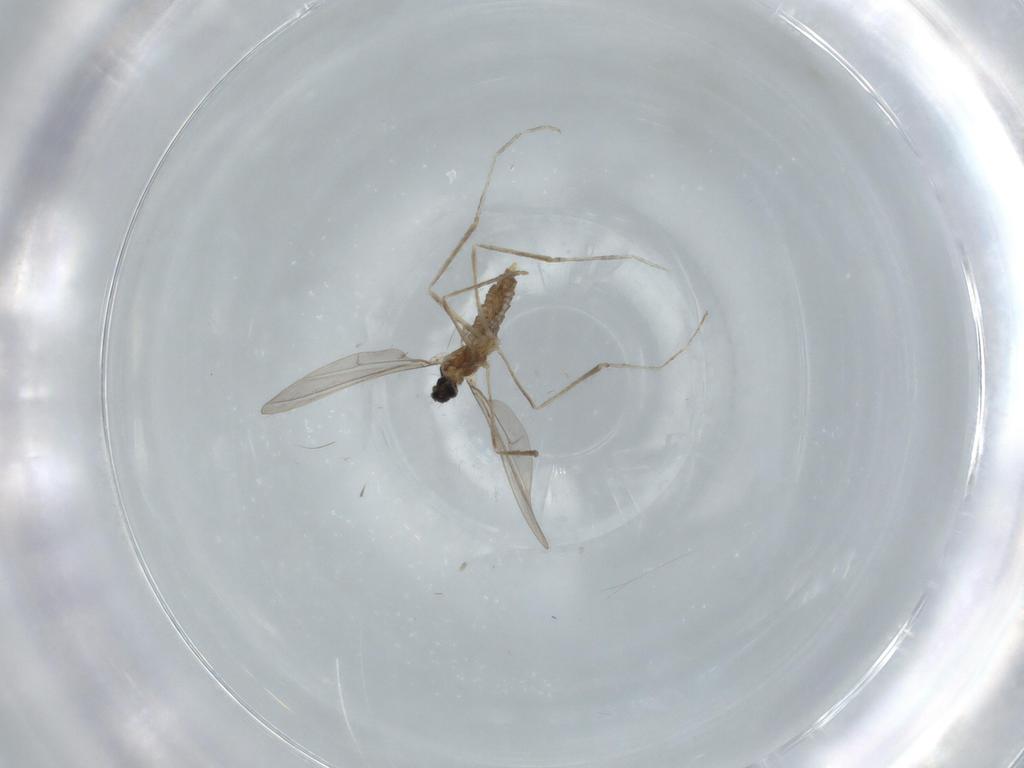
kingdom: Animalia
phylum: Arthropoda
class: Insecta
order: Diptera
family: Cecidomyiidae
